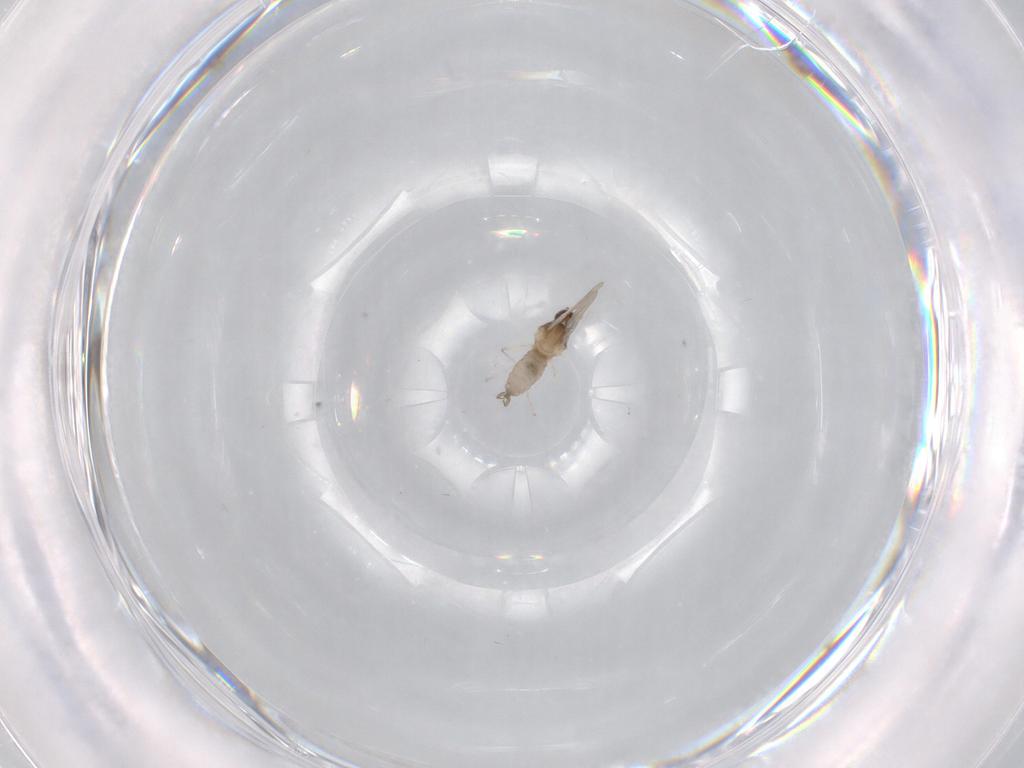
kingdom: Animalia
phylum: Arthropoda
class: Insecta
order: Diptera
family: Cecidomyiidae
